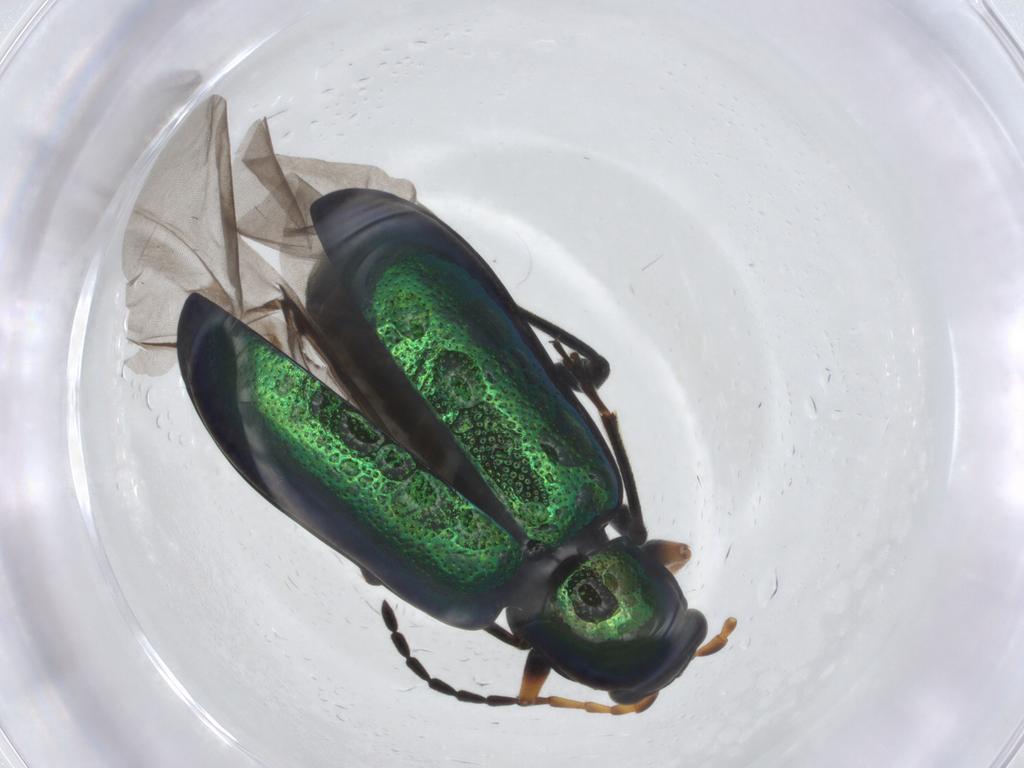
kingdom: Animalia
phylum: Arthropoda
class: Insecta
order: Coleoptera
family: Chrysomelidae
